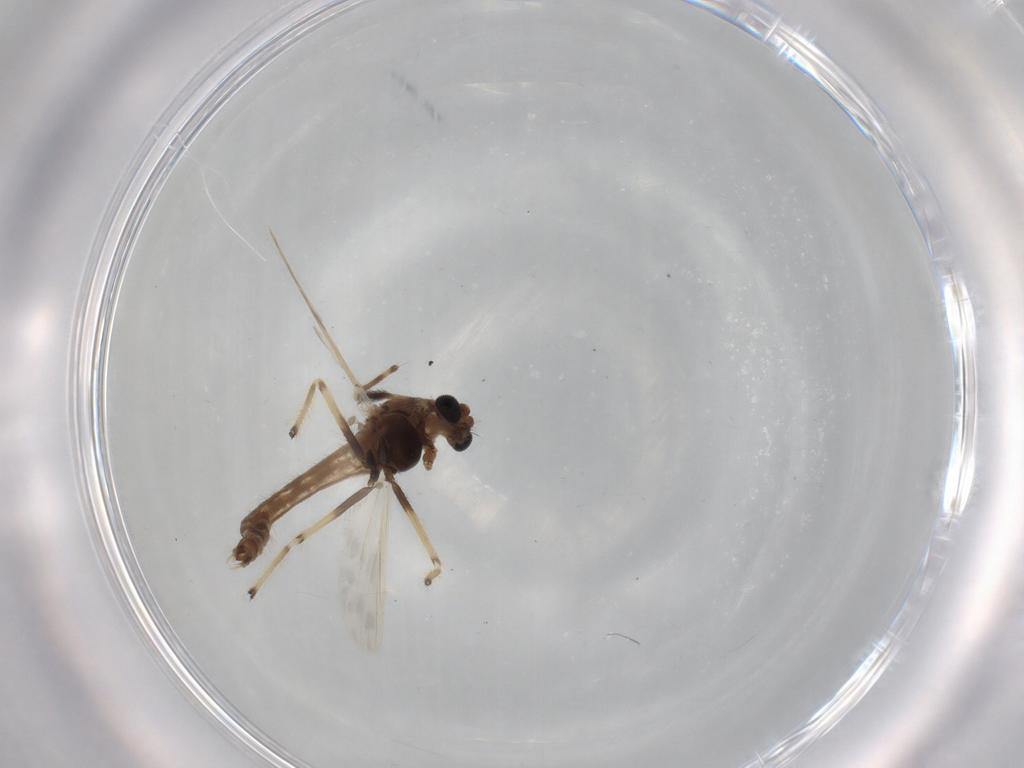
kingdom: Animalia
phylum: Arthropoda
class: Insecta
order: Diptera
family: Chironomidae
